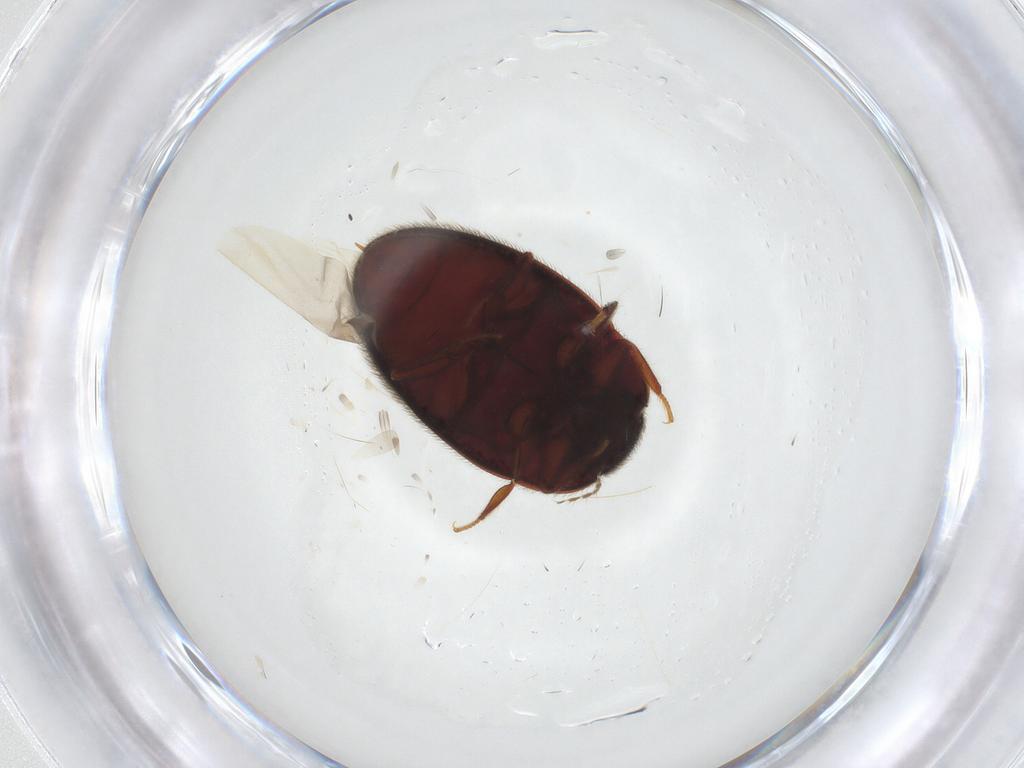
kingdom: Animalia
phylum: Arthropoda
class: Insecta
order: Coleoptera
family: Limnichidae
